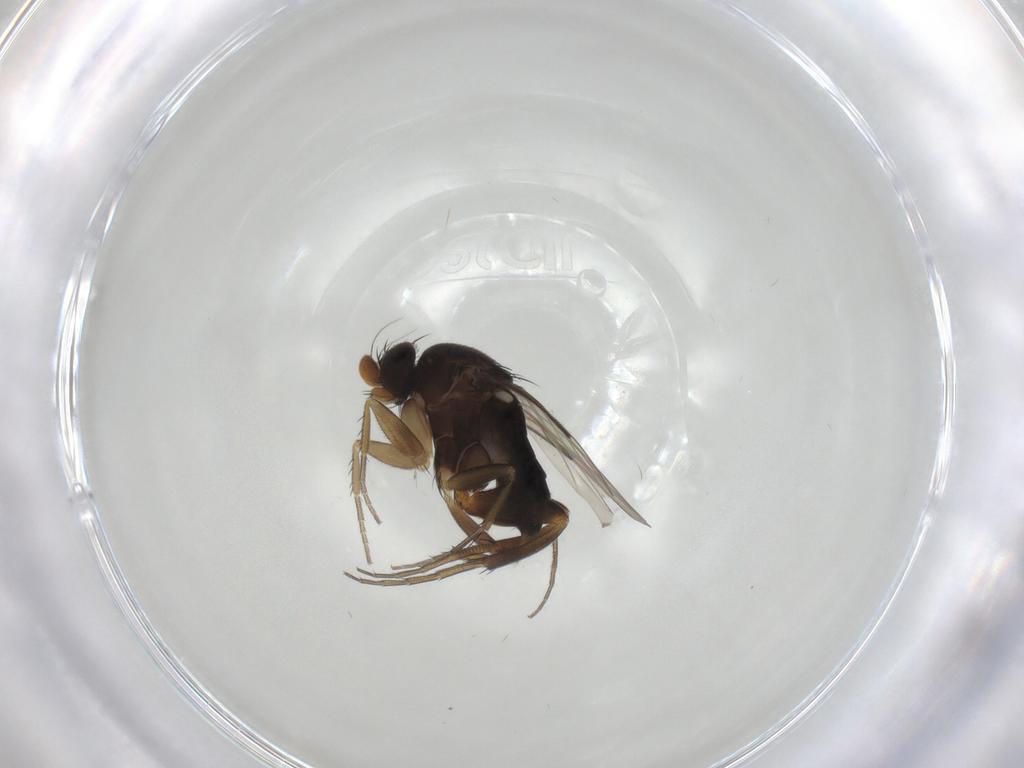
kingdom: Animalia
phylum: Arthropoda
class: Insecta
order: Diptera
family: Phoridae
